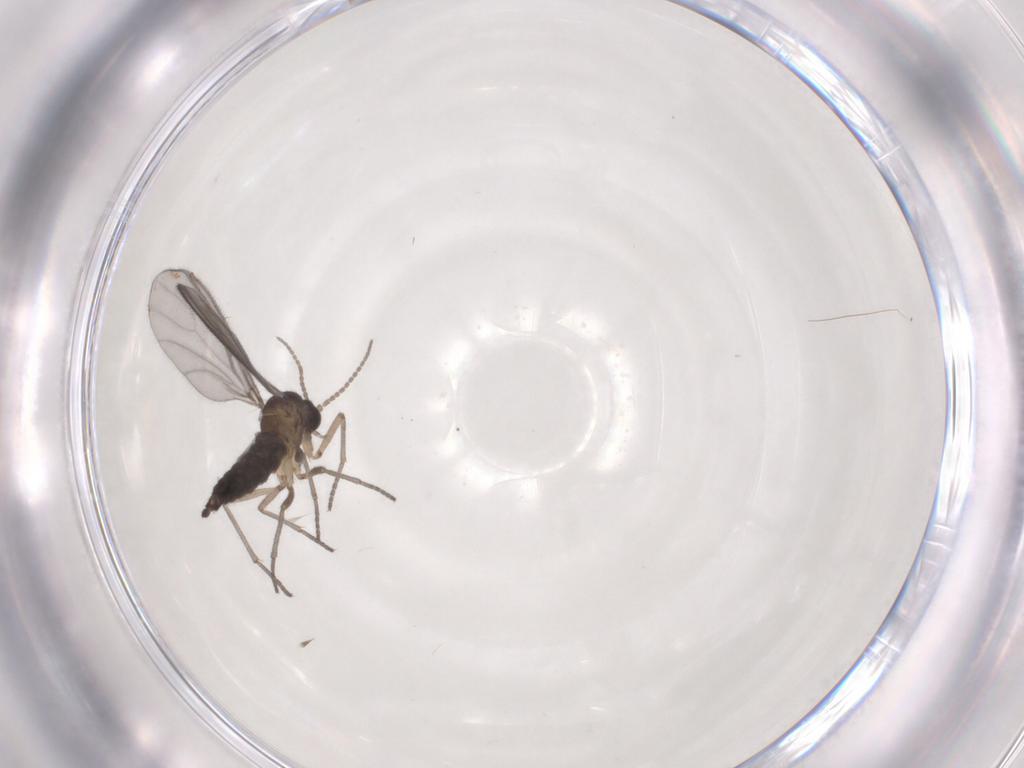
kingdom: Animalia
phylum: Arthropoda
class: Insecta
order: Diptera
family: Sciaridae
